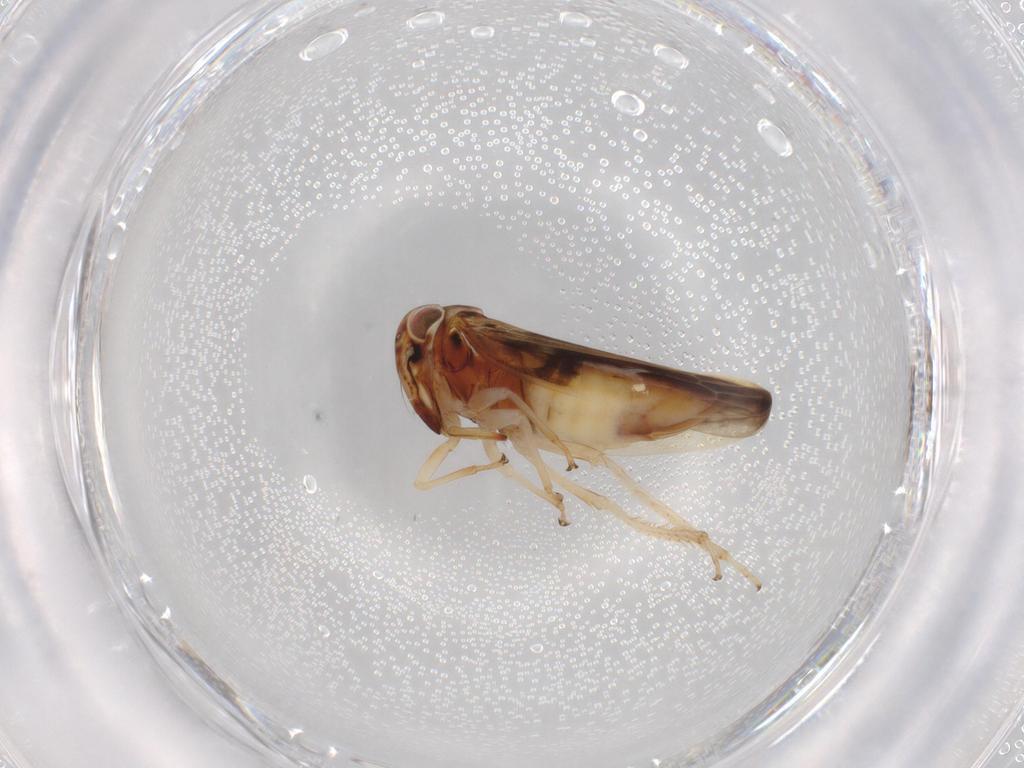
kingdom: Animalia
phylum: Arthropoda
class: Insecta
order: Hemiptera
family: Cicadellidae
